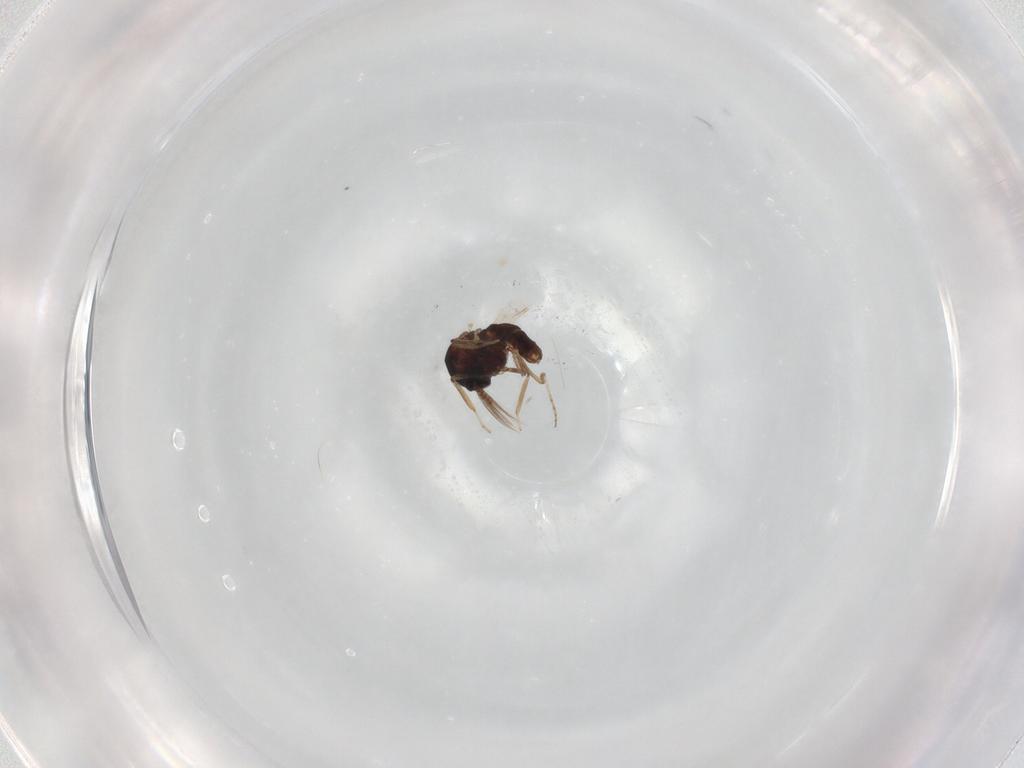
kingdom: Animalia
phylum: Arthropoda
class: Insecta
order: Diptera
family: Ceratopogonidae
